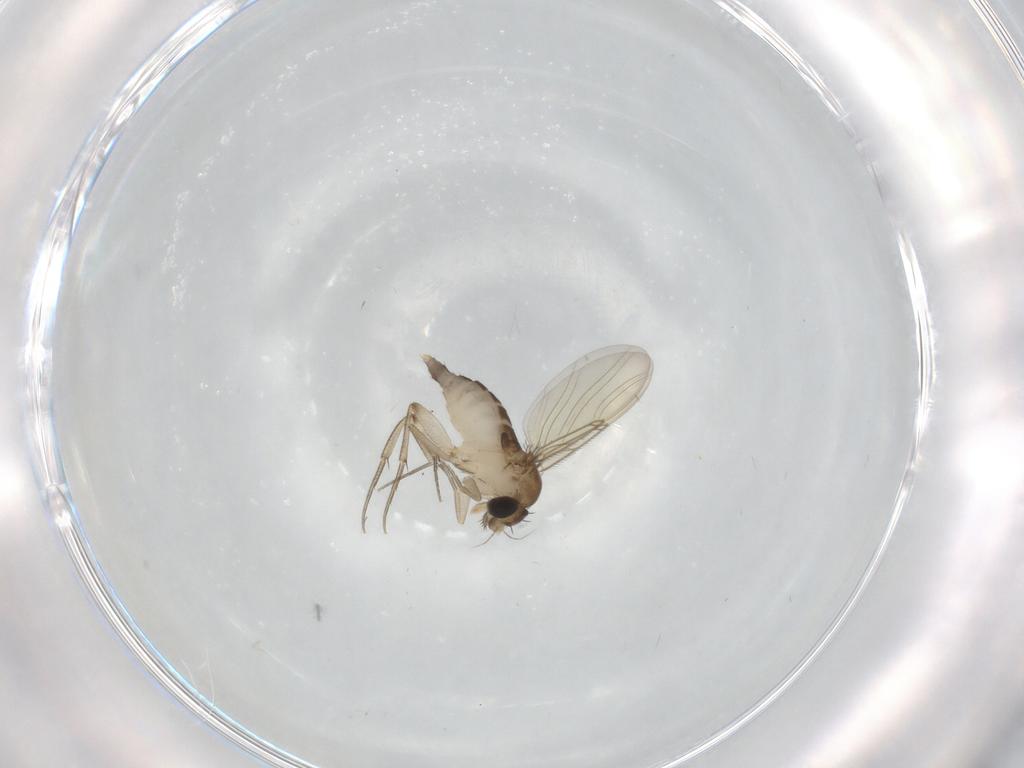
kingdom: Animalia
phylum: Arthropoda
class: Insecta
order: Diptera
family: Phoridae
